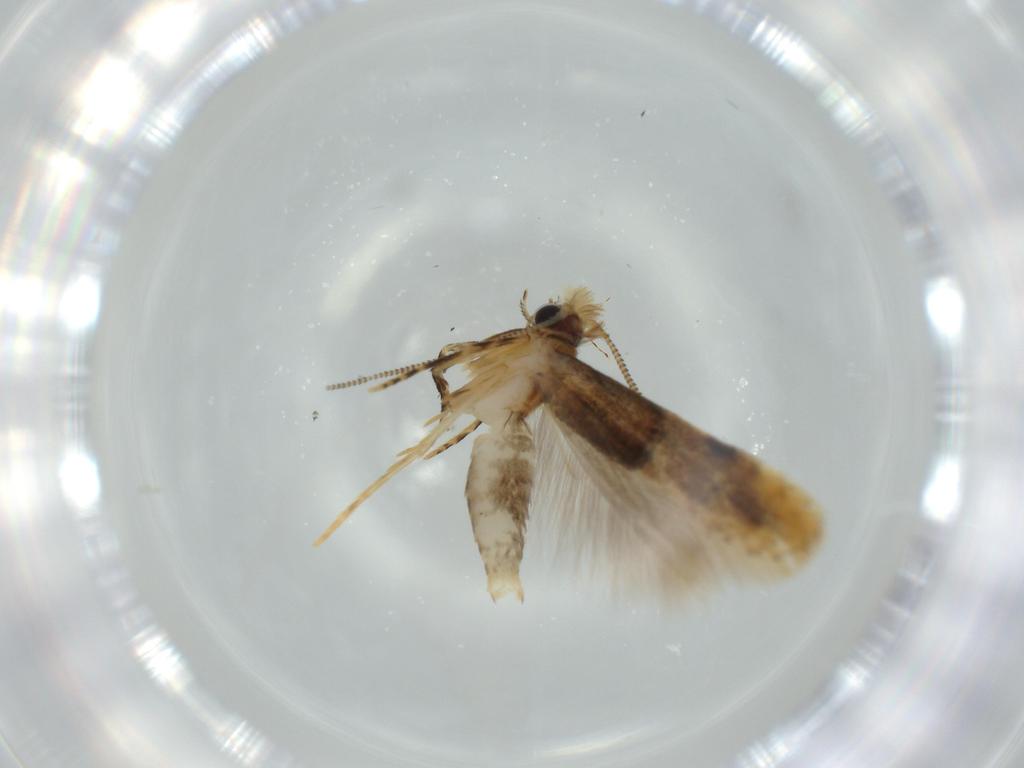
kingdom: Animalia
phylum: Arthropoda
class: Insecta
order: Lepidoptera
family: Tineidae
